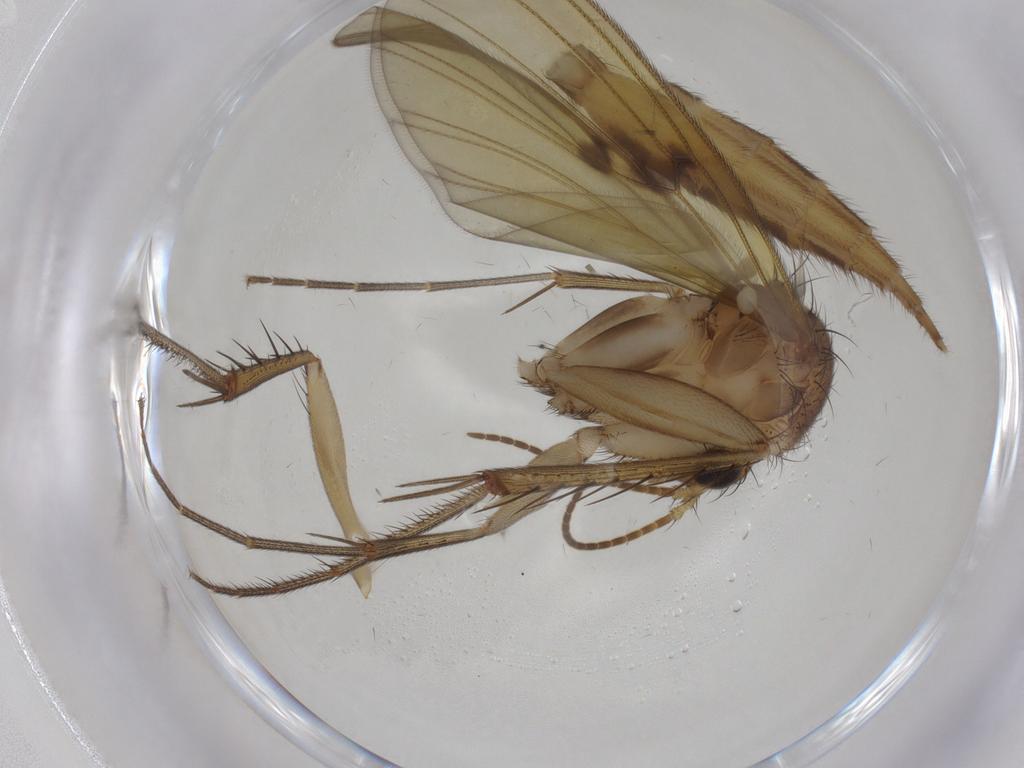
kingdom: Animalia
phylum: Arthropoda
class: Insecta
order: Diptera
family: Mycetophilidae
